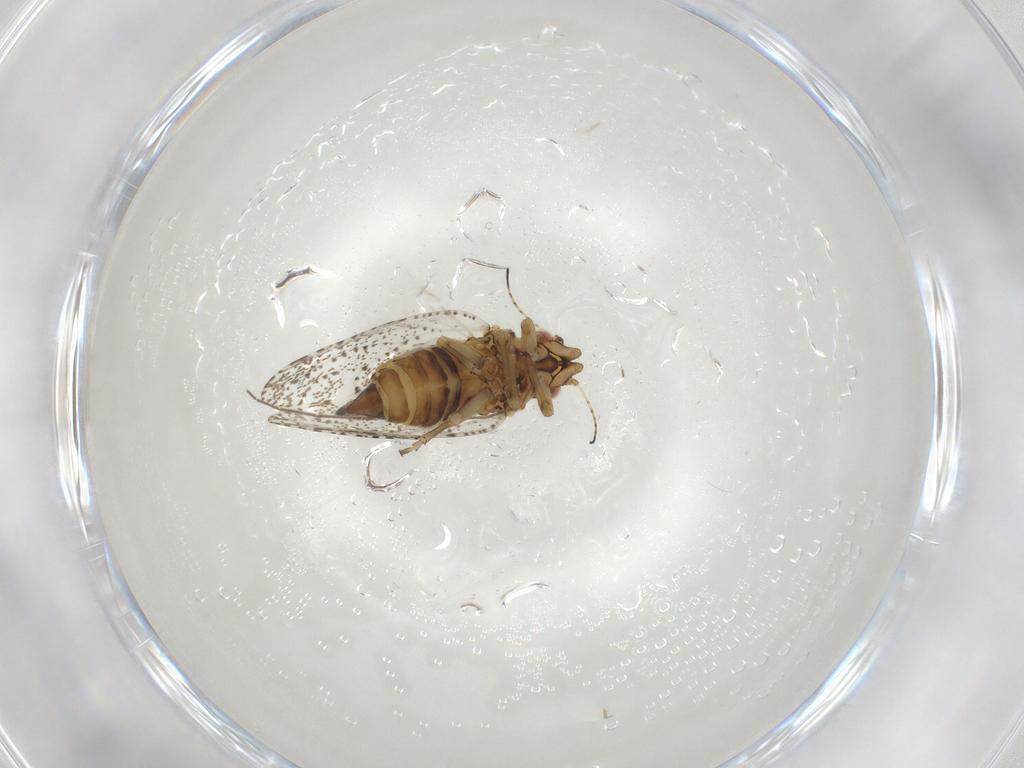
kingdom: Animalia
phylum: Arthropoda
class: Insecta
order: Hemiptera
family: Psylloidea_incertae_sedis
